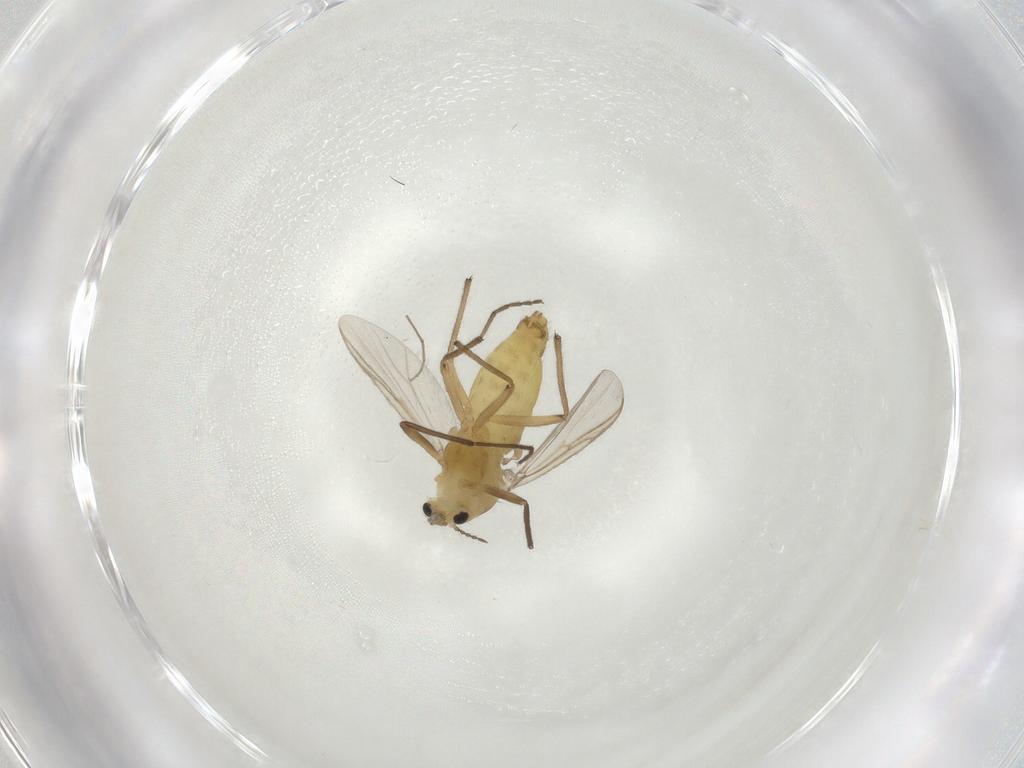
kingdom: Animalia
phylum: Arthropoda
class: Insecta
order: Diptera
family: Chironomidae
